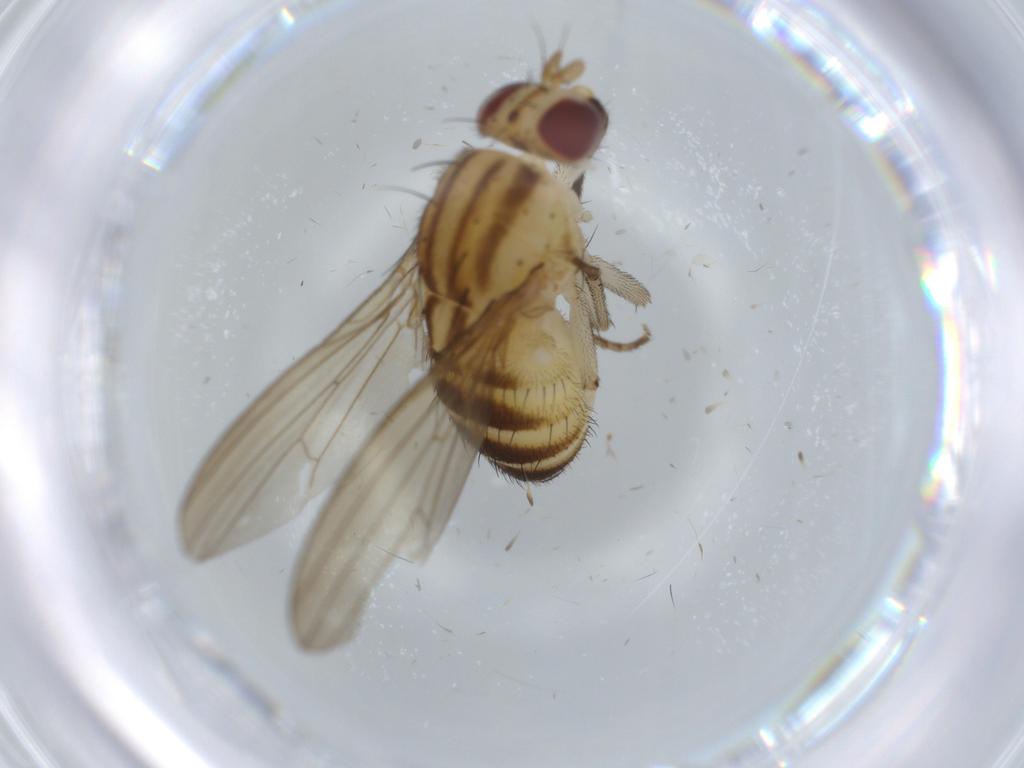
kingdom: Animalia
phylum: Arthropoda
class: Insecta
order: Diptera
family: Lauxaniidae
